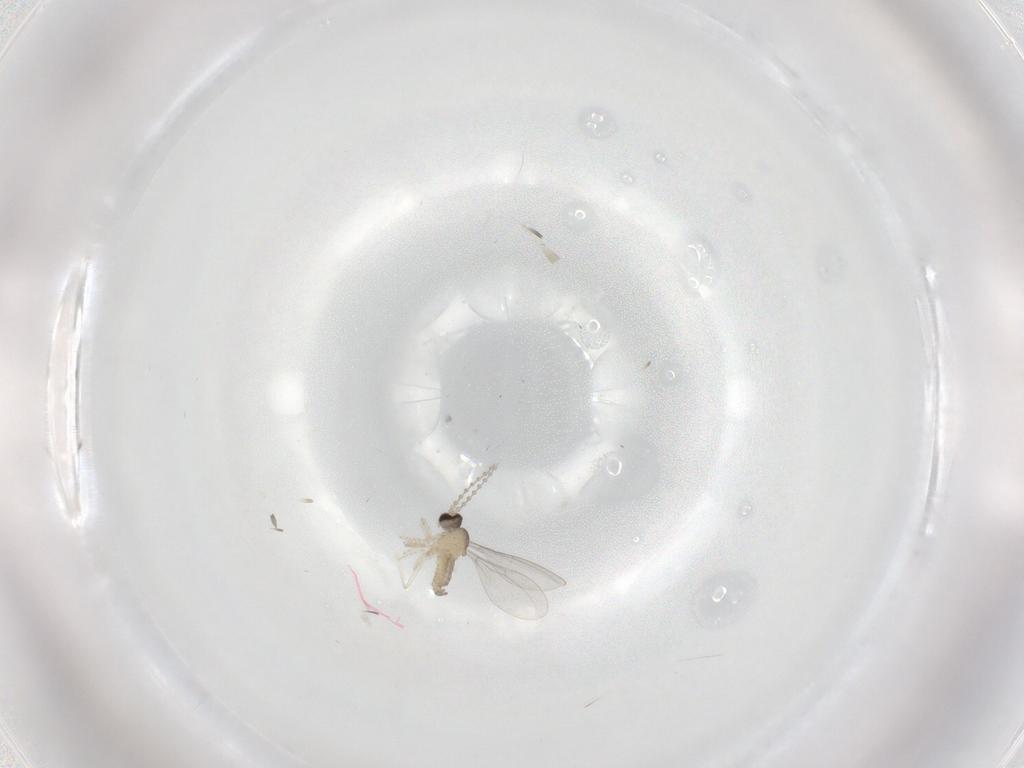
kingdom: Animalia
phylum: Arthropoda
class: Insecta
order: Diptera
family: Cecidomyiidae
